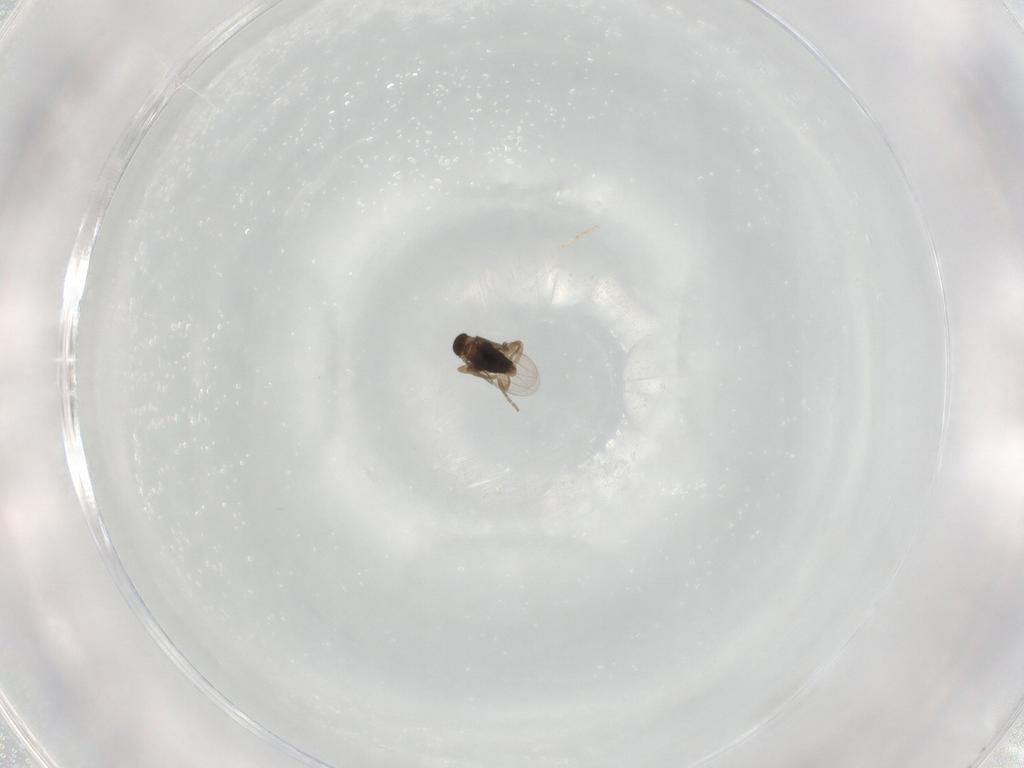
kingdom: Animalia
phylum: Arthropoda
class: Insecta
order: Diptera
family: Phoridae
